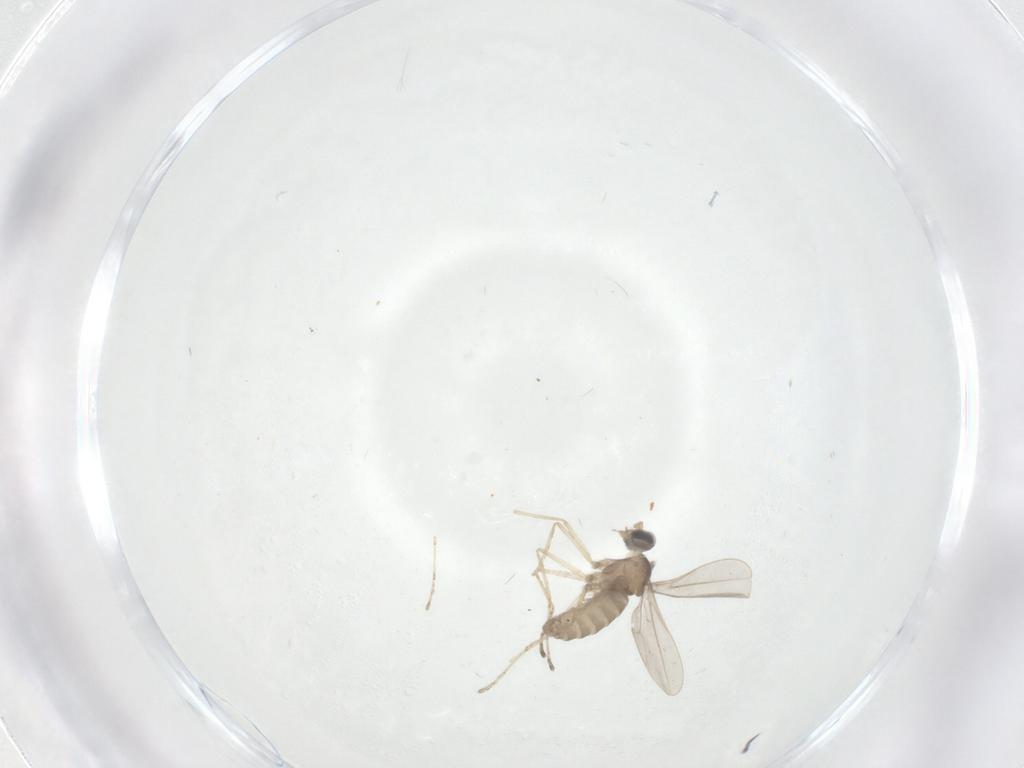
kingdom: Animalia
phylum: Arthropoda
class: Insecta
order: Diptera
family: Cecidomyiidae
